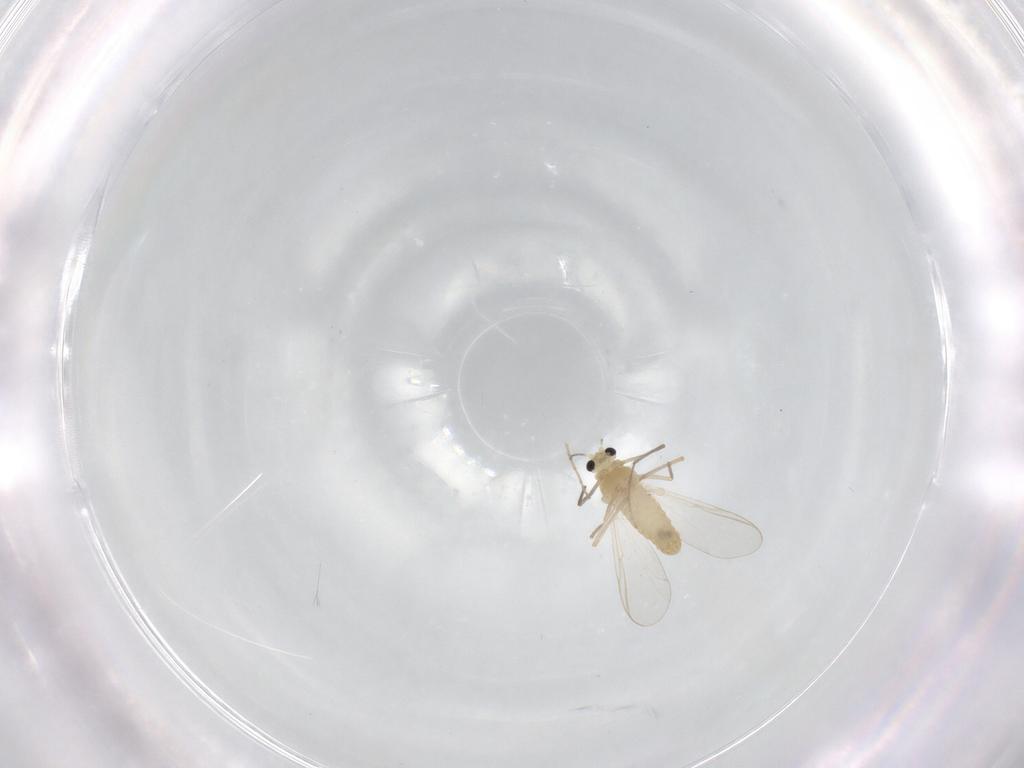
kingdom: Animalia
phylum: Arthropoda
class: Insecta
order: Diptera
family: Chironomidae
